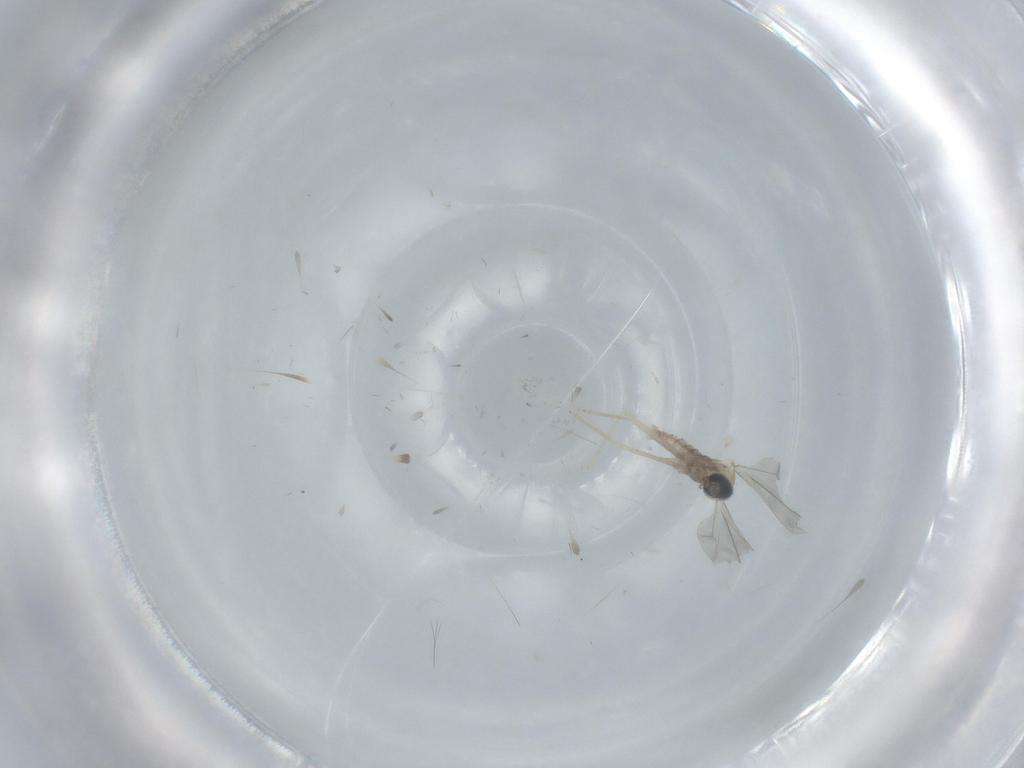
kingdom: Animalia
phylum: Arthropoda
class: Insecta
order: Diptera
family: Cecidomyiidae
